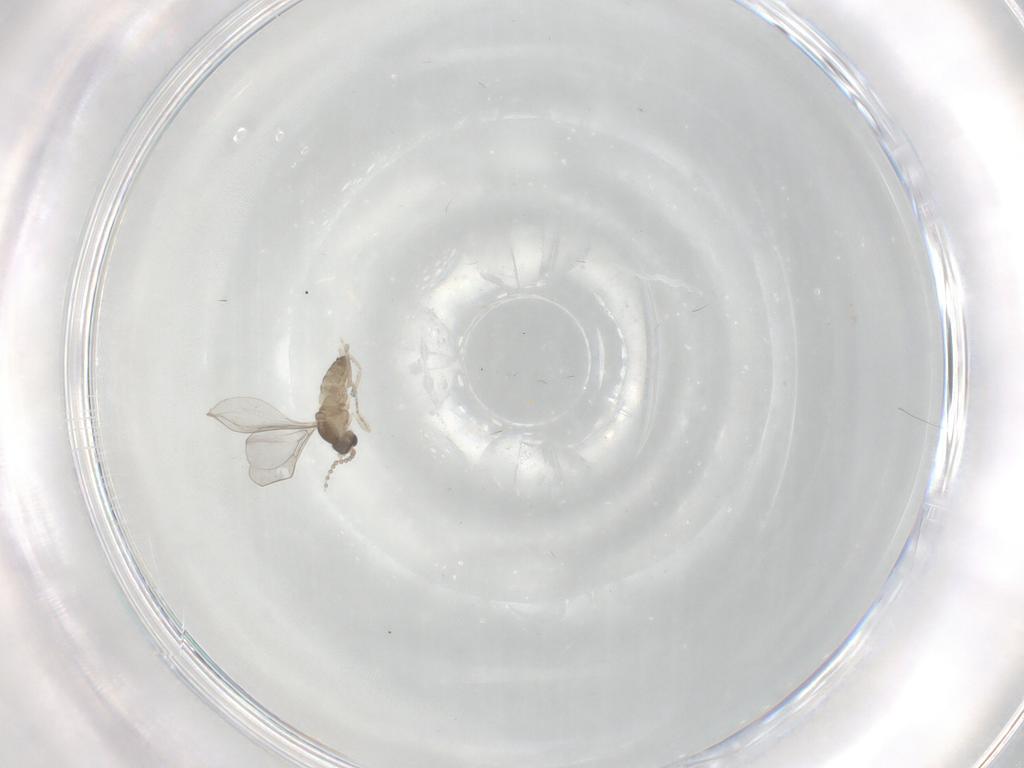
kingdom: Animalia
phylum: Arthropoda
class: Insecta
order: Diptera
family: Cecidomyiidae
